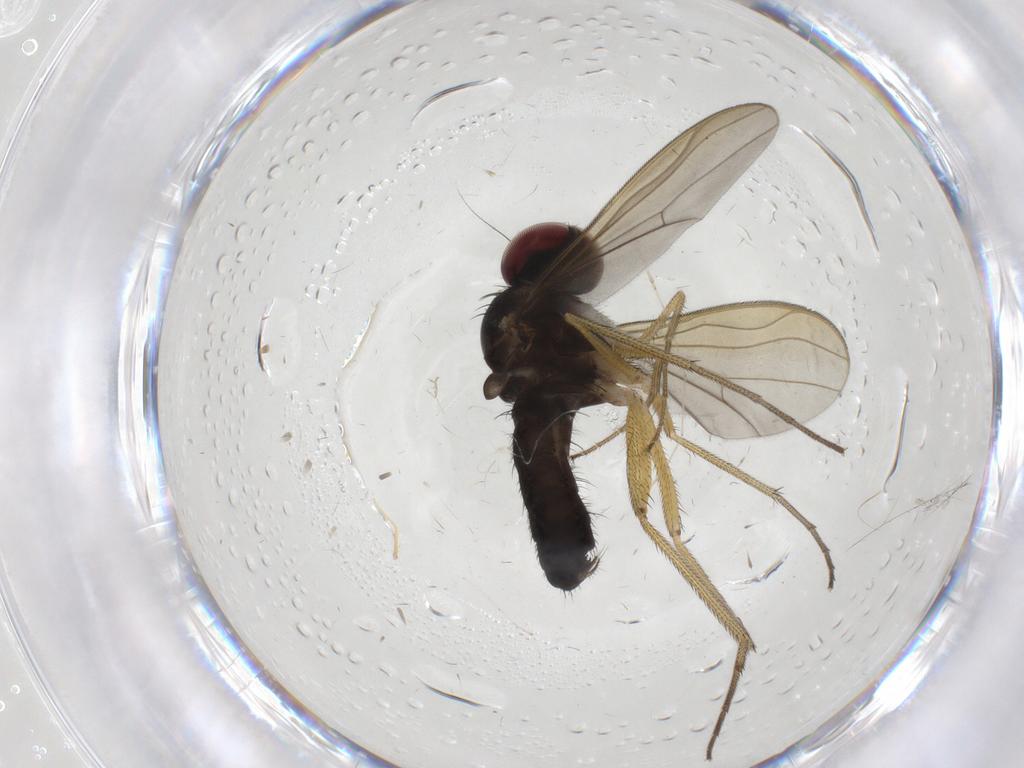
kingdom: Animalia
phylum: Arthropoda
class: Insecta
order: Diptera
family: Dolichopodidae
